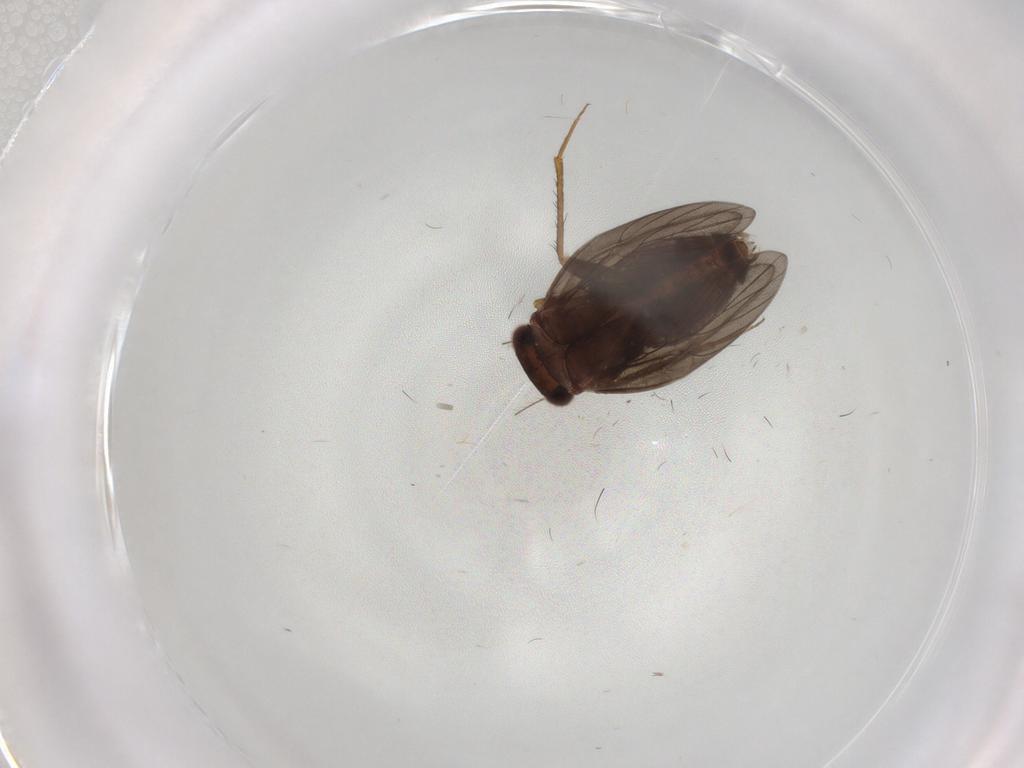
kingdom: Animalia
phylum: Arthropoda
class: Insecta
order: Psocodea
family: Lepidopsocidae
